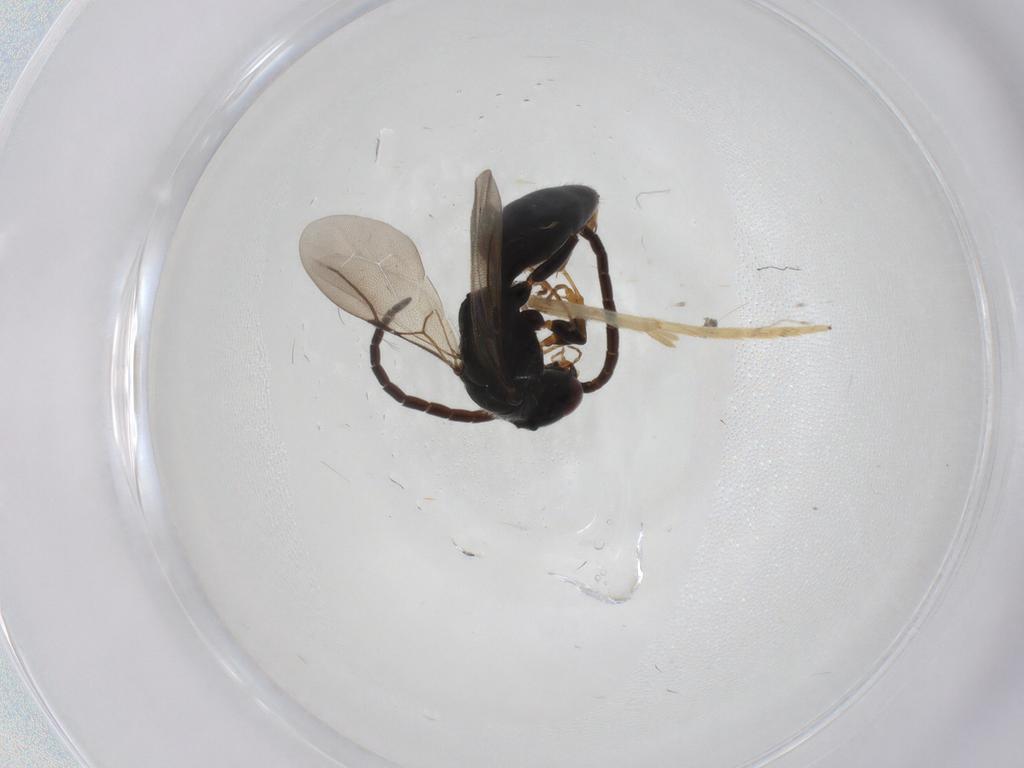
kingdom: Animalia
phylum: Arthropoda
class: Insecta
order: Hymenoptera
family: Bethylidae
